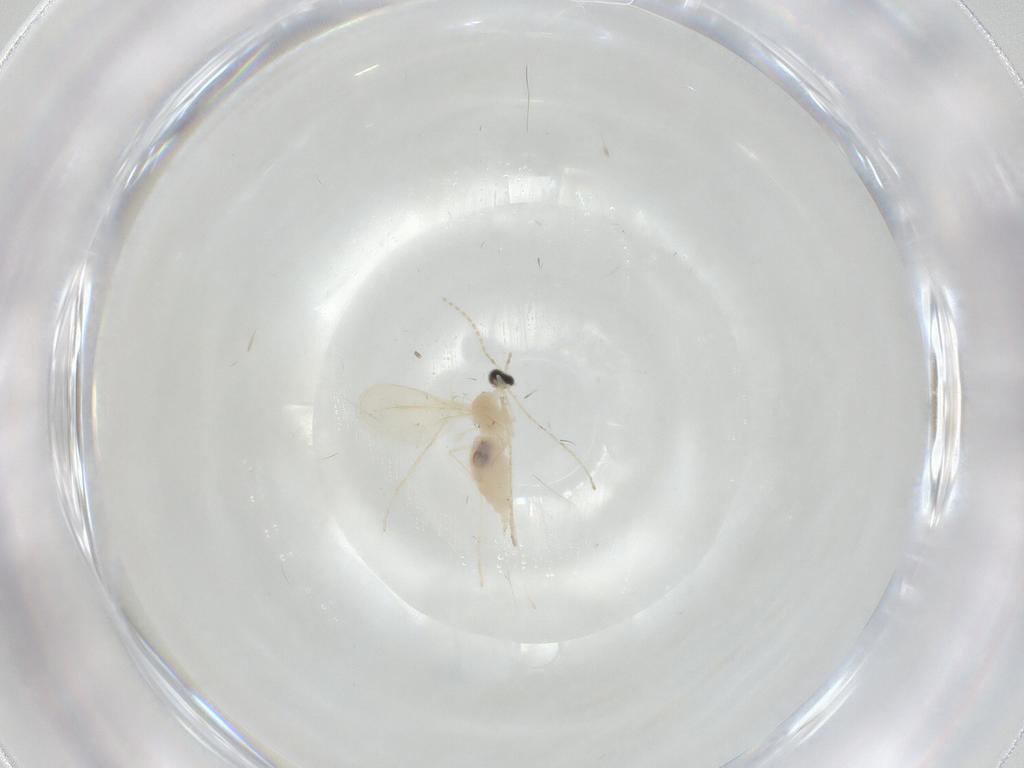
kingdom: Animalia
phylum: Arthropoda
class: Insecta
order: Diptera
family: Cecidomyiidae
